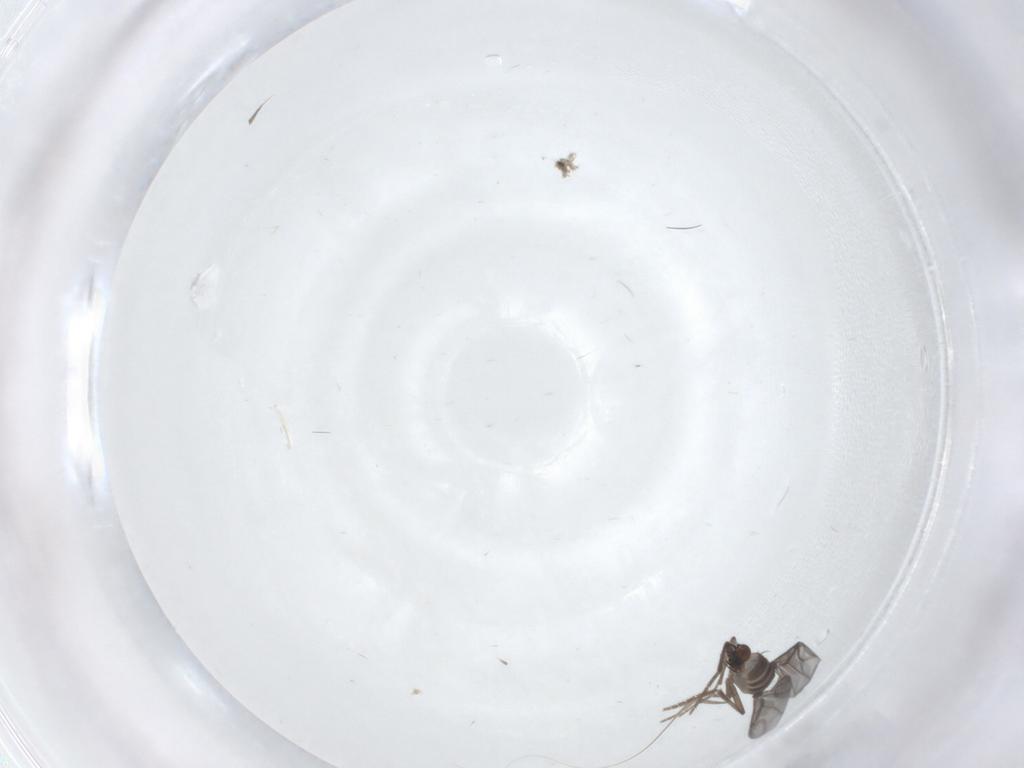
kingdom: Animalia
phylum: Arthropoda
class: Insecta
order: Diptera
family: Phoridae
